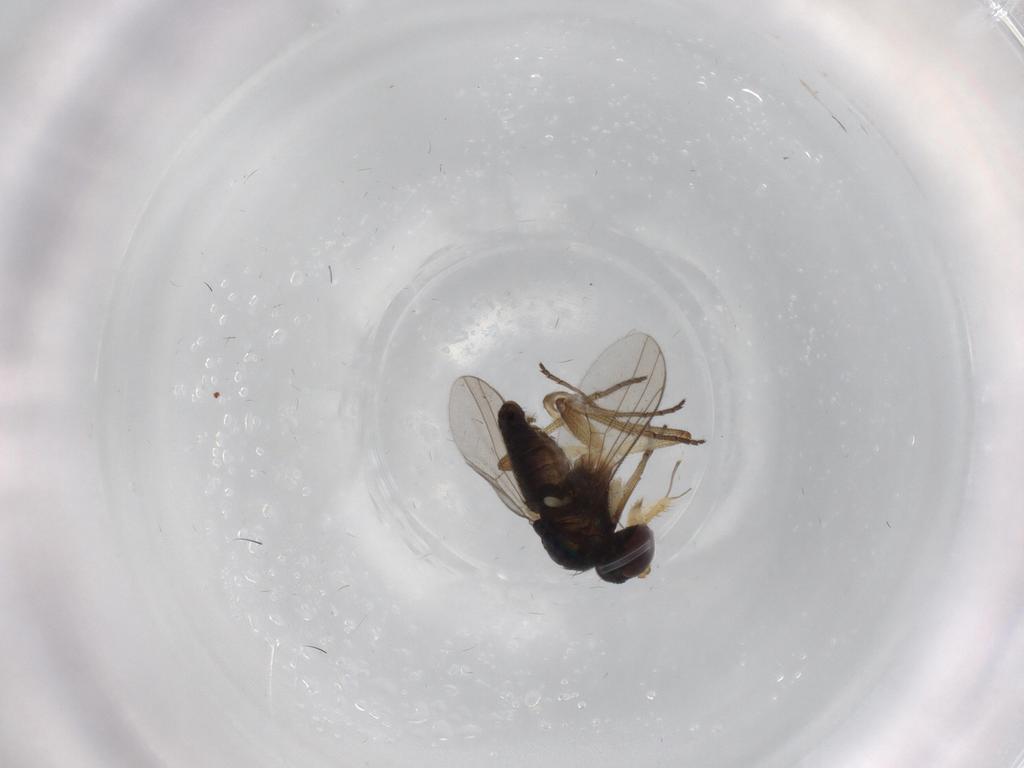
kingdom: Animalia
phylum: Arthropoda
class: Insecta
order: Diptera
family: Dolichopodidae
